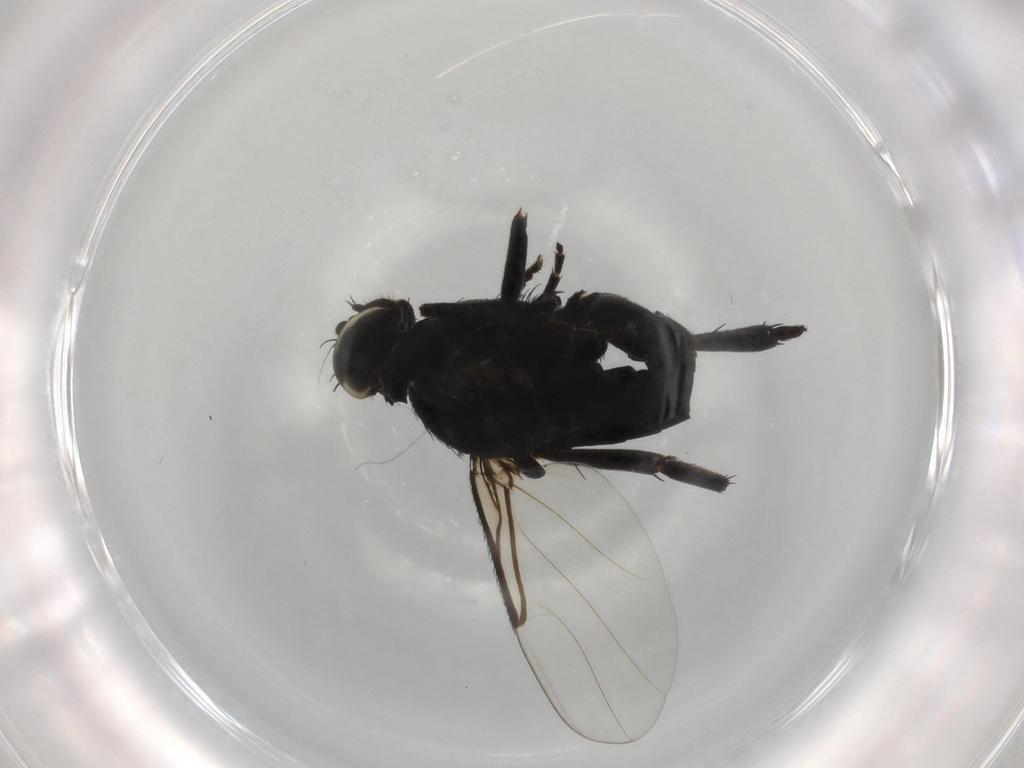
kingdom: Animalia
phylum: Arthropoda
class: Insecta
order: Diptera
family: Phoridae
